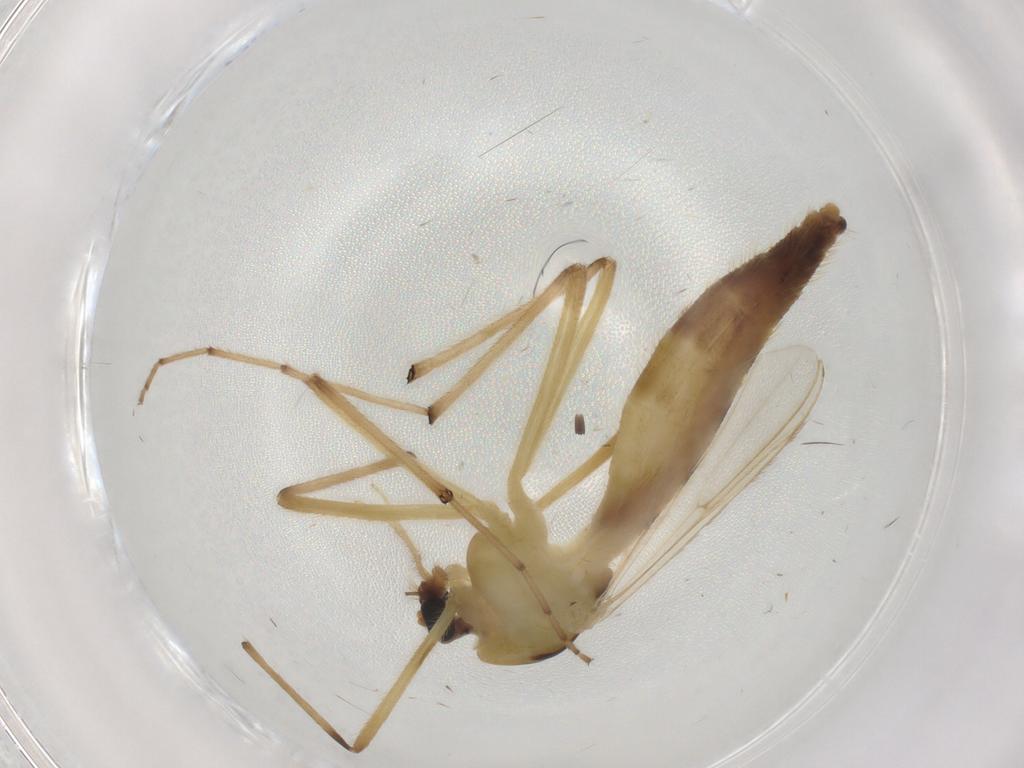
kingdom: Animalia
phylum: Arthropoda
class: Insecta
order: Diptera
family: Chironomidae
